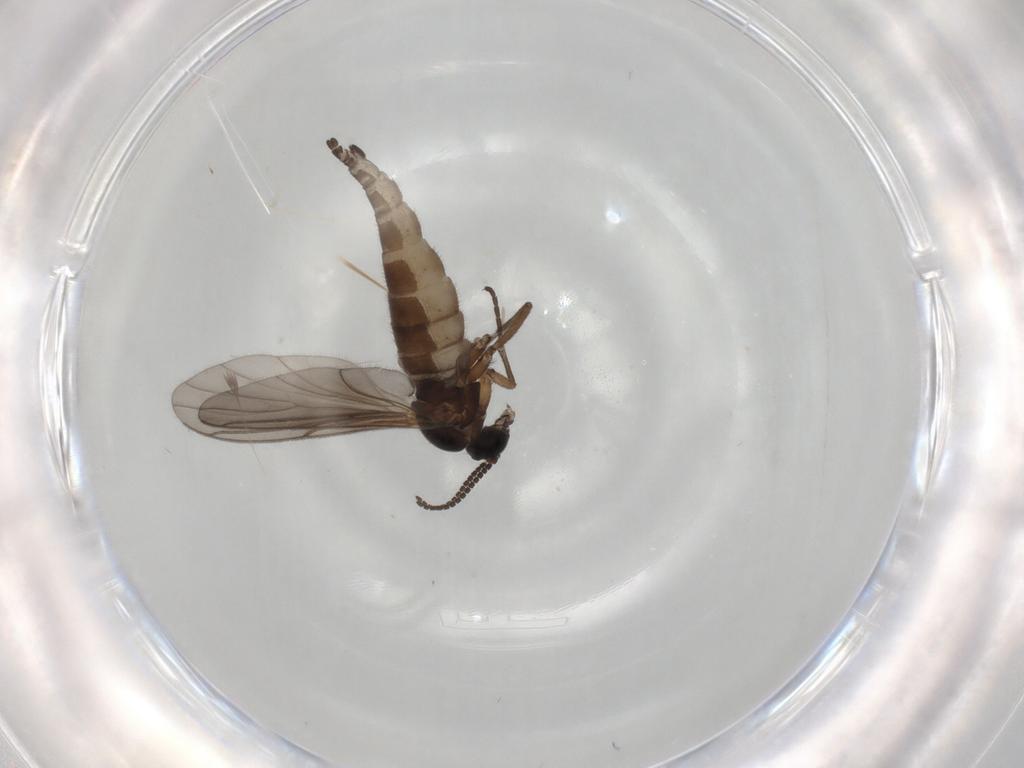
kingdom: Animalia
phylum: Arthropoda
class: Insecta
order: Diptera
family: Sciaridae
